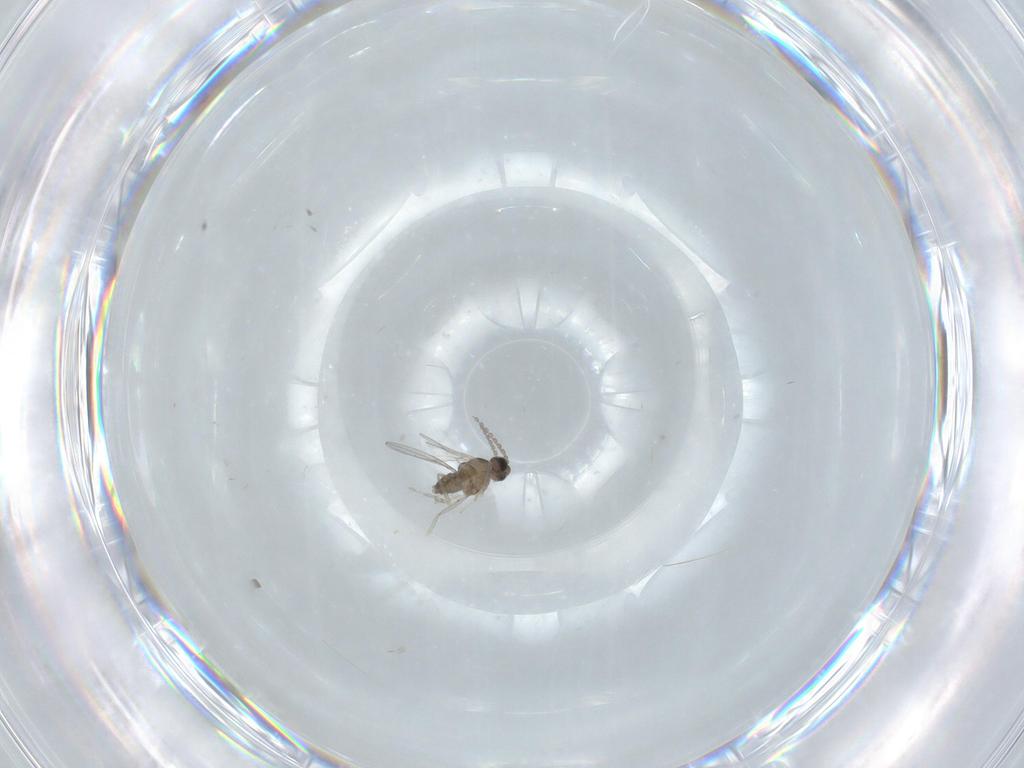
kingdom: Animalia
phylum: Arthropoda
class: Insecta
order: Diptera
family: Cecidomyiidae
